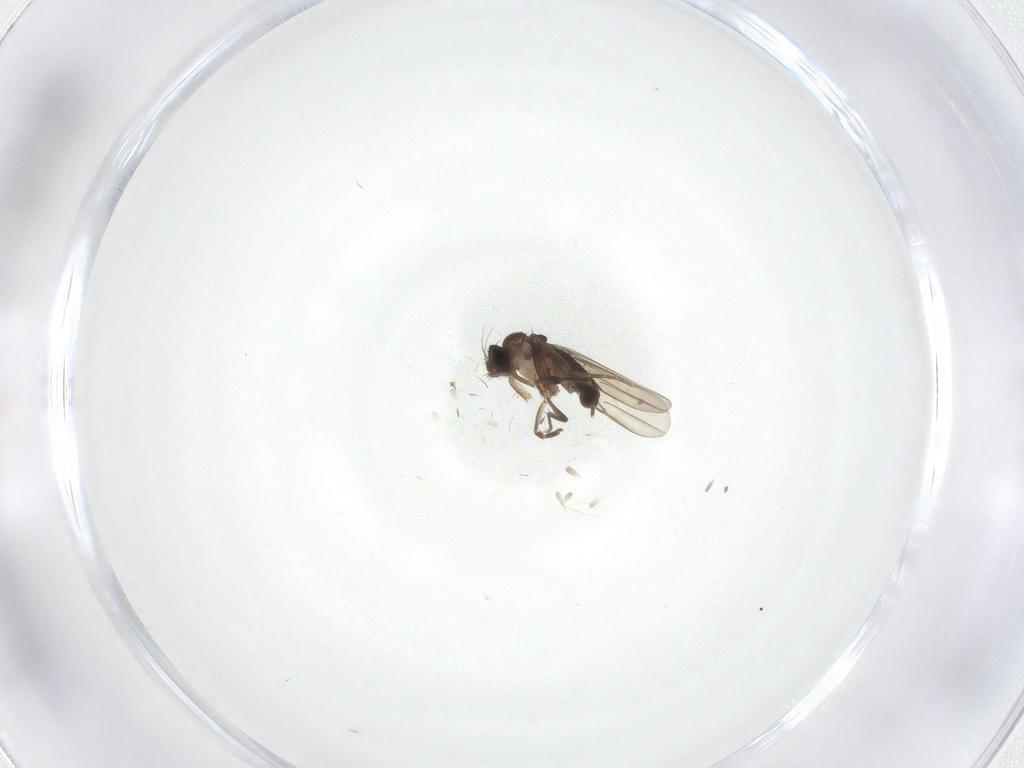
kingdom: Animalia
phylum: Arthropoda
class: Insecta
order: Diptera
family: Phoridae
